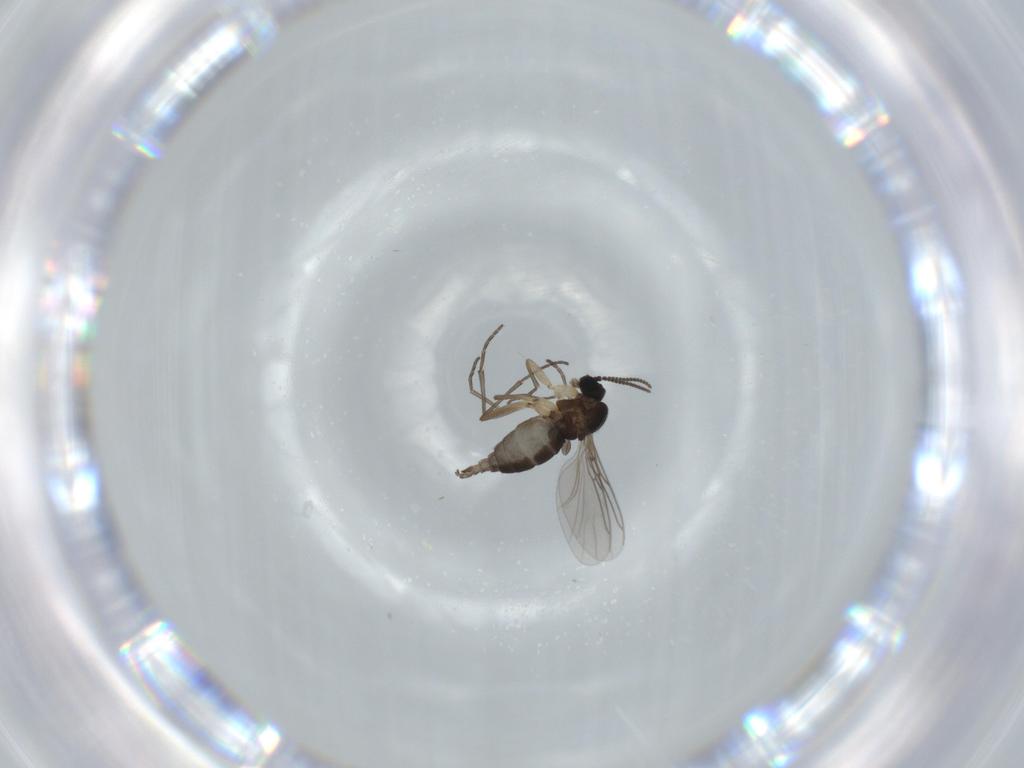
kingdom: Animalia
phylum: Arthropoda
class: Insecta
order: Diptera
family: Sciaridae
